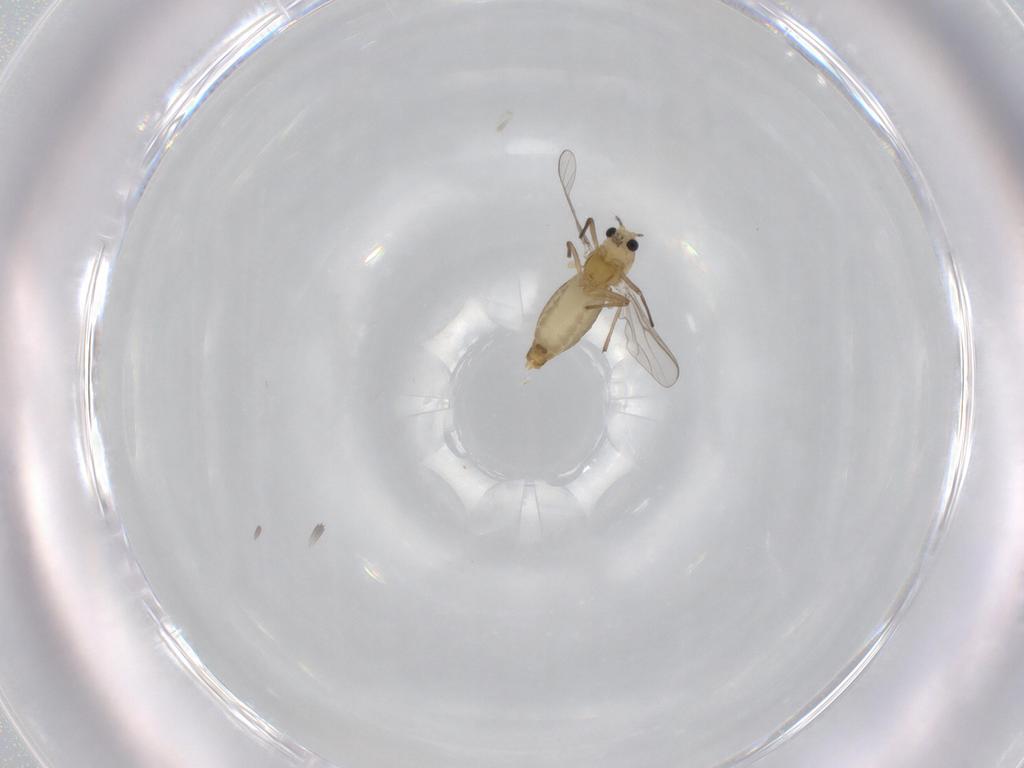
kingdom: Animalia
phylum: Arthropoda
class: Insecta
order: Diptera
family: Chironomidae
